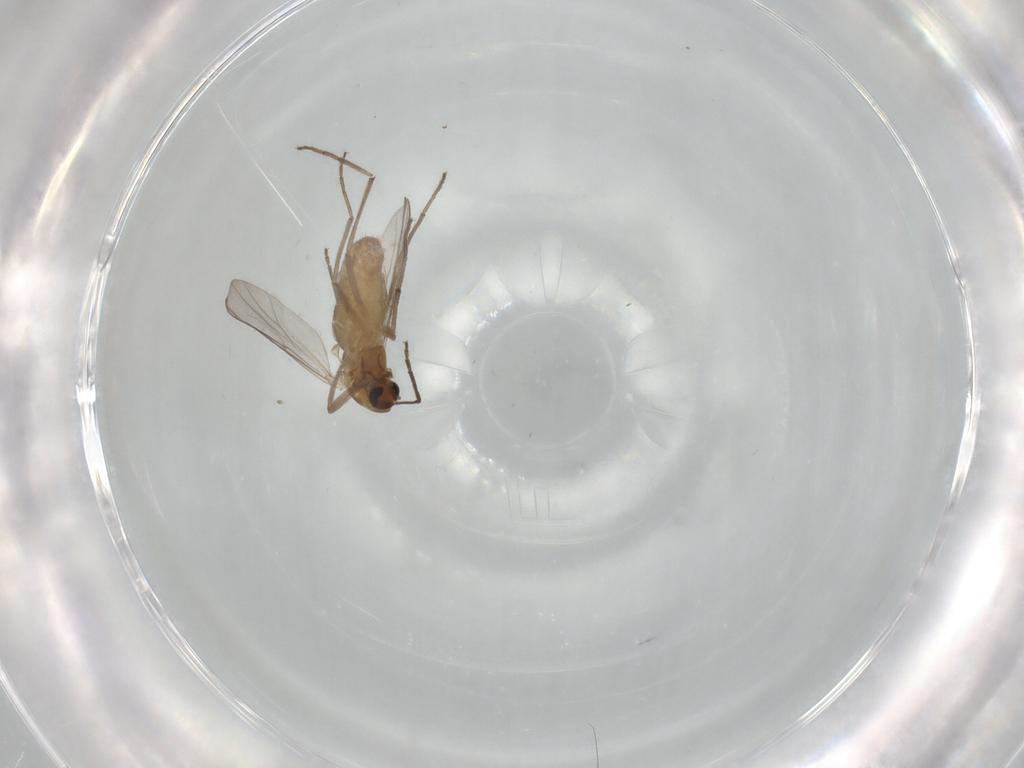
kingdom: Animalia
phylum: Arthropoda
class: Insecta
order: Diptera
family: Chironomidae
